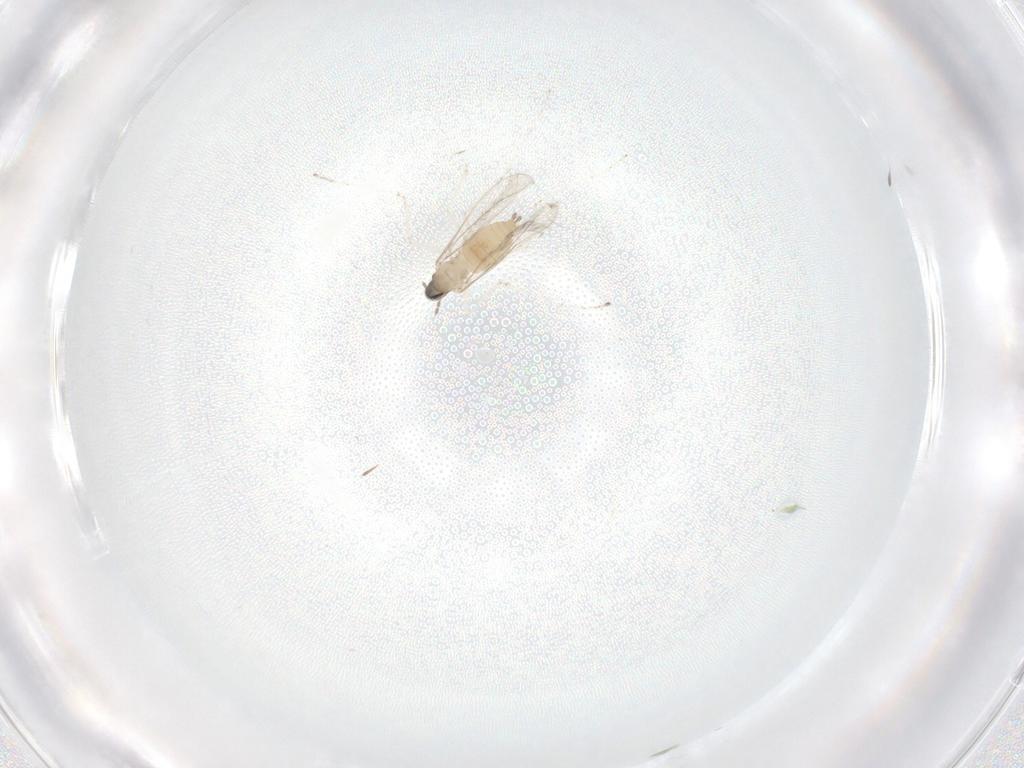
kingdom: Animalia
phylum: Arthropoda
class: Insecta
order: Diptera
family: Cecidomyiidae
